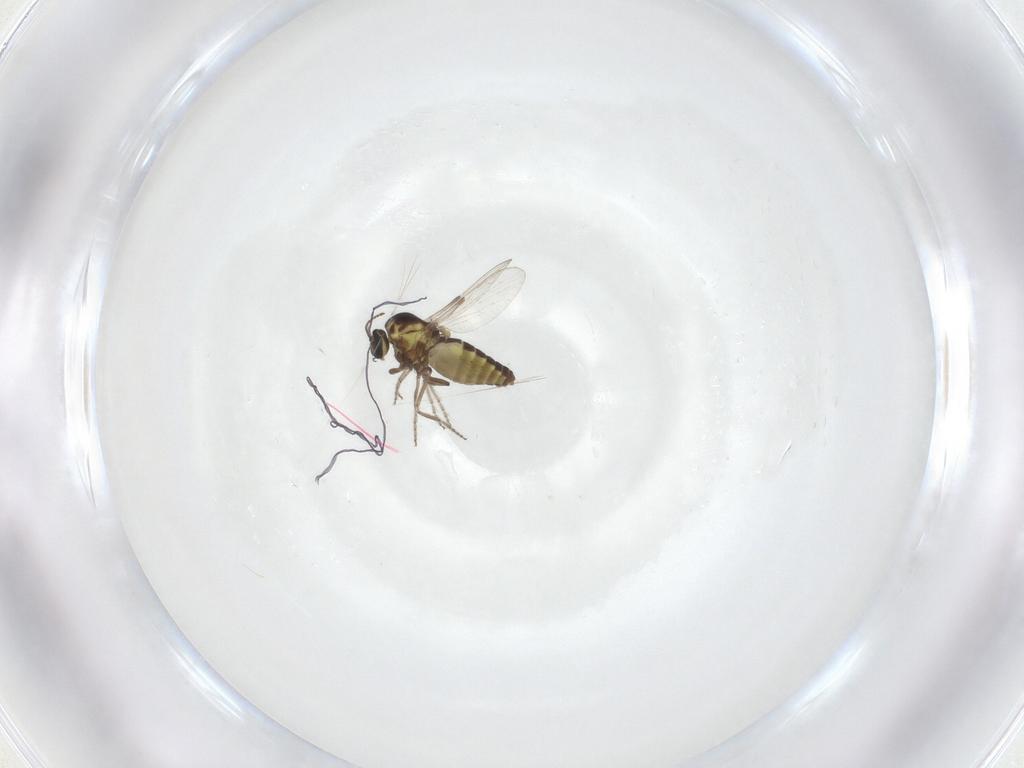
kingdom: Animalia
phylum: Arthropoda
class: Insecta
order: Diptera
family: Ceratopogonidae
